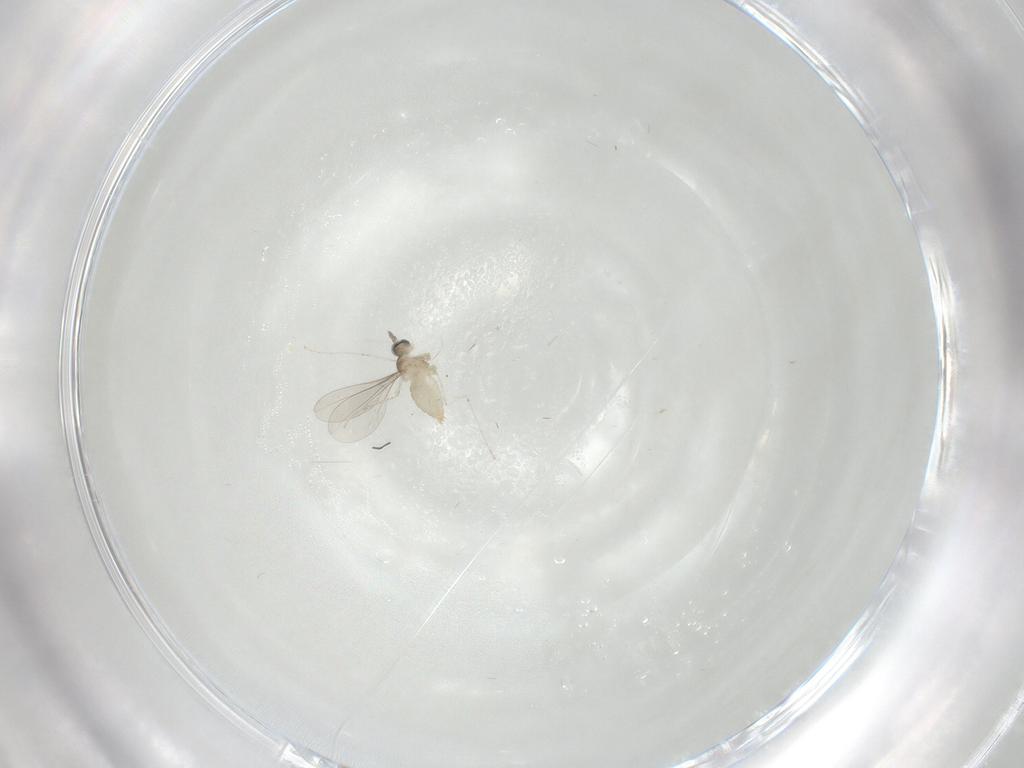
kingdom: Animalia
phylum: Arthropoda
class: Insecta
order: Diptera
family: Cecidomyiidae
